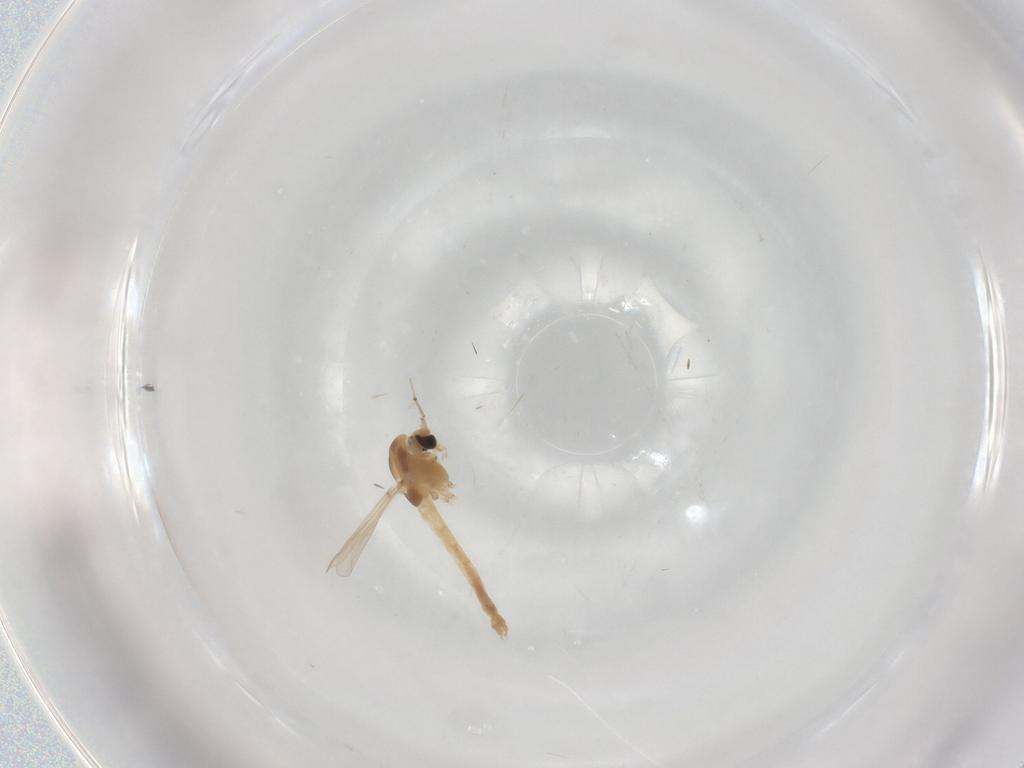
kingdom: Animalia
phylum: Arthropoda
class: Insecta
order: Diptera
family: Chironomidae
